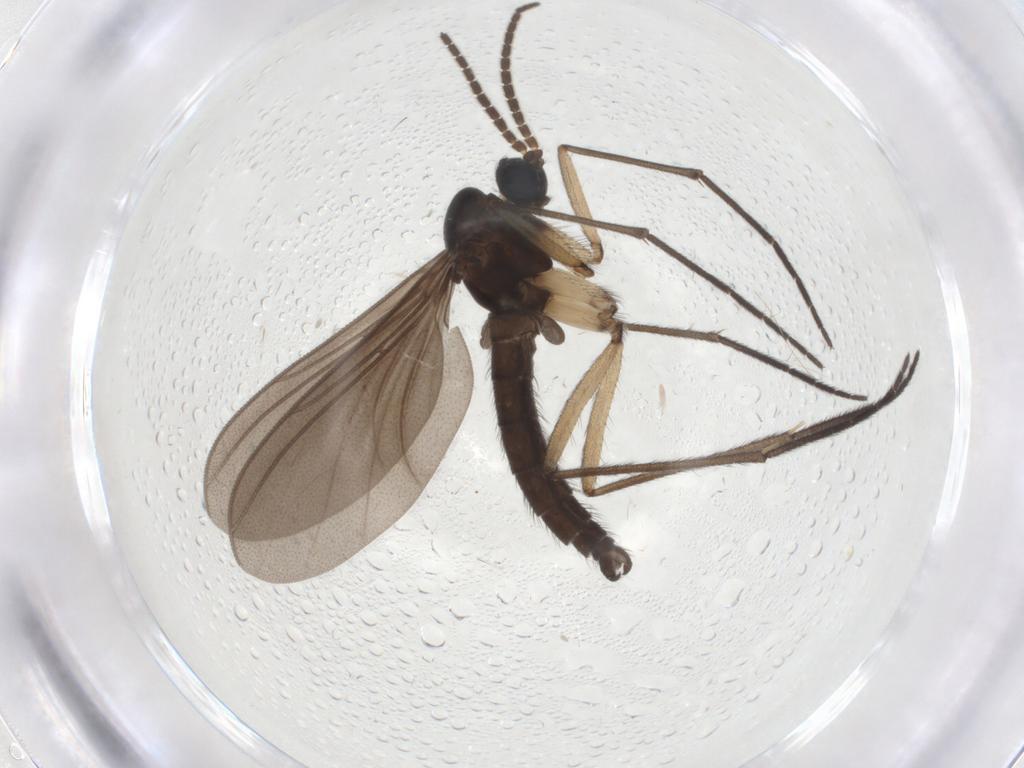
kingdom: Animalia
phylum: Arthropoda
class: Insecta
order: Diptera
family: Sciaridae
